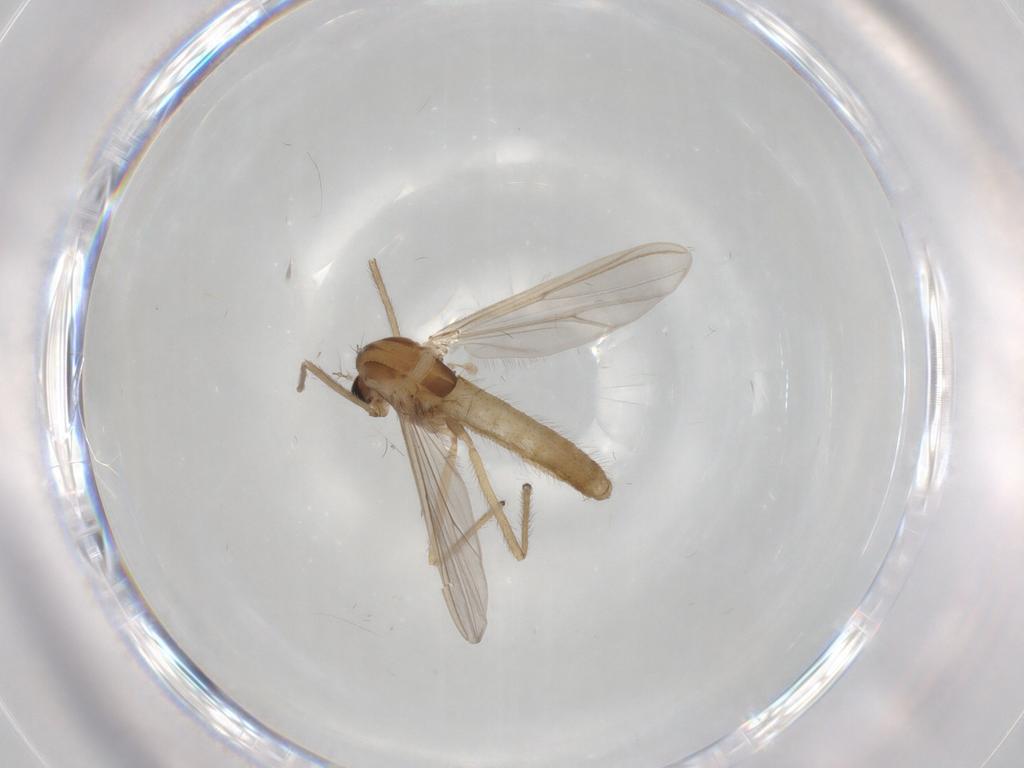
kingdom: Animalia
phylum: Arthropoda
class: Insecta
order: Diptera
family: Chironomidae
